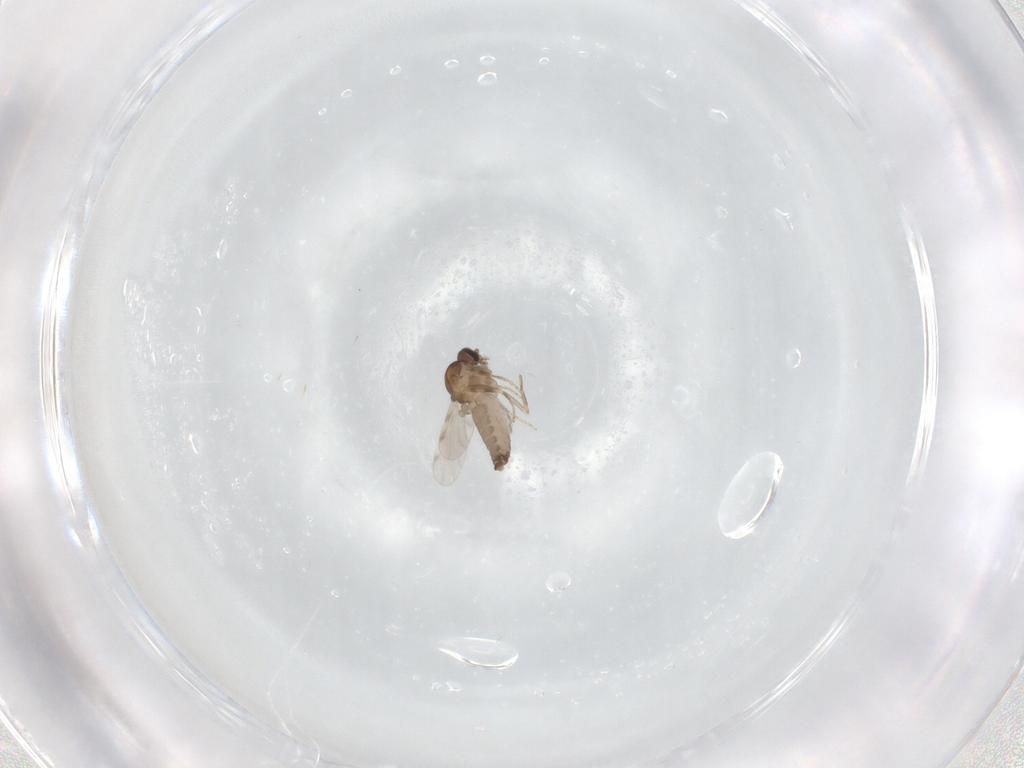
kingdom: Animalia
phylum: Arthropoda
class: Insecta
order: Diptera
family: Ceratopogonidae
